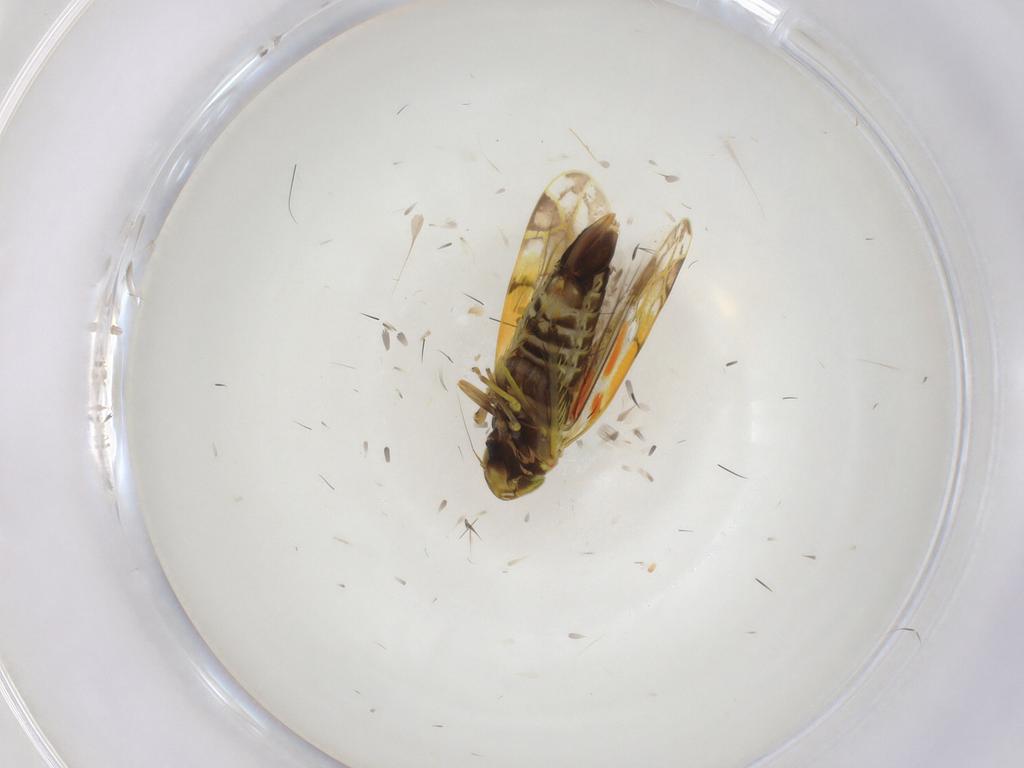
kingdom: Animalia
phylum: Arthropoda
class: Insecta
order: Hemiptera
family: Cicadellidae
